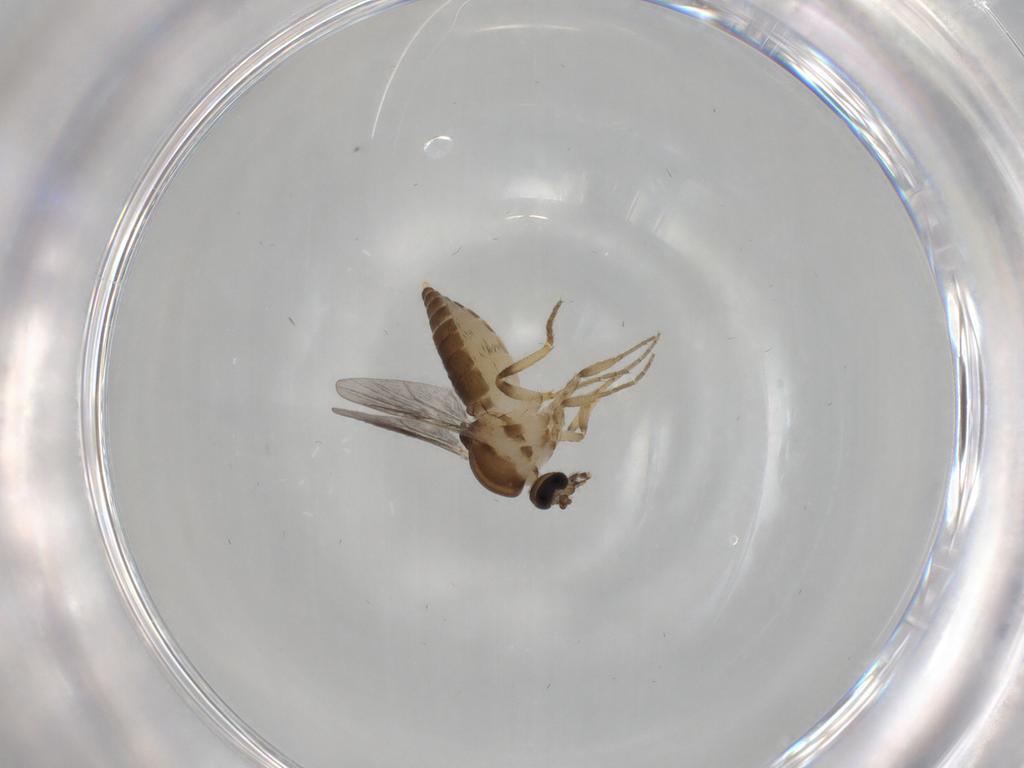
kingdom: Animalia
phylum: Arthropoda
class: Insecta
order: Diptera
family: Ceratopogonidae
